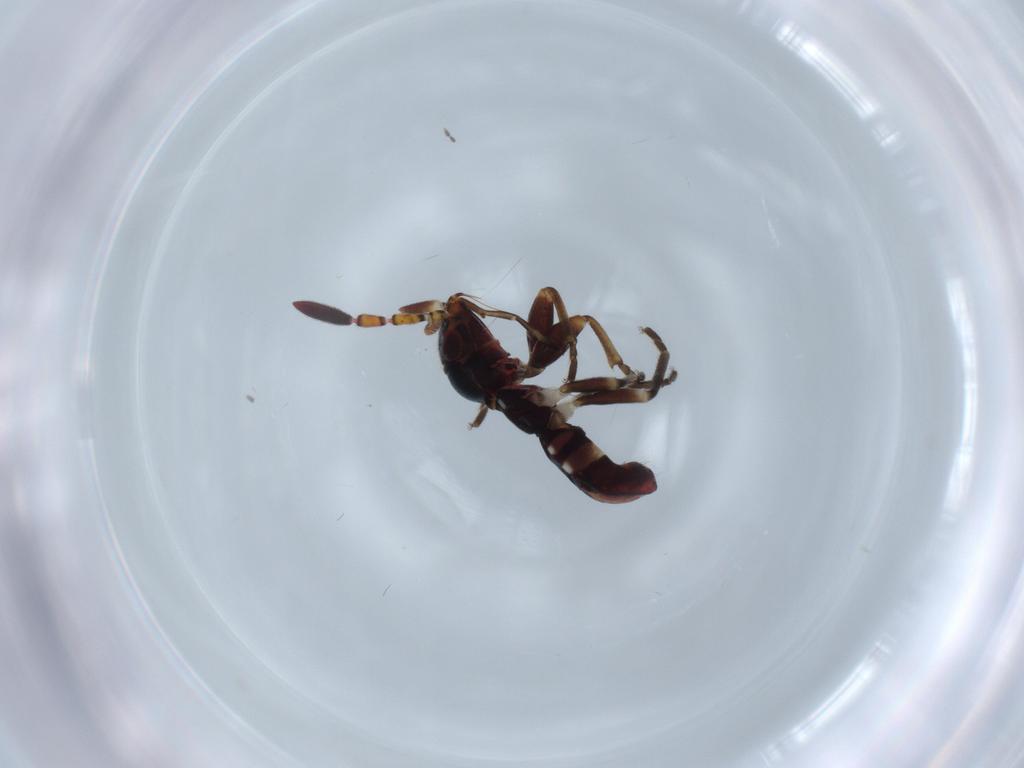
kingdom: Animalia
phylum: Arthropoda
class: Insecta
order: Hemiptera
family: Rhyparochromidae
